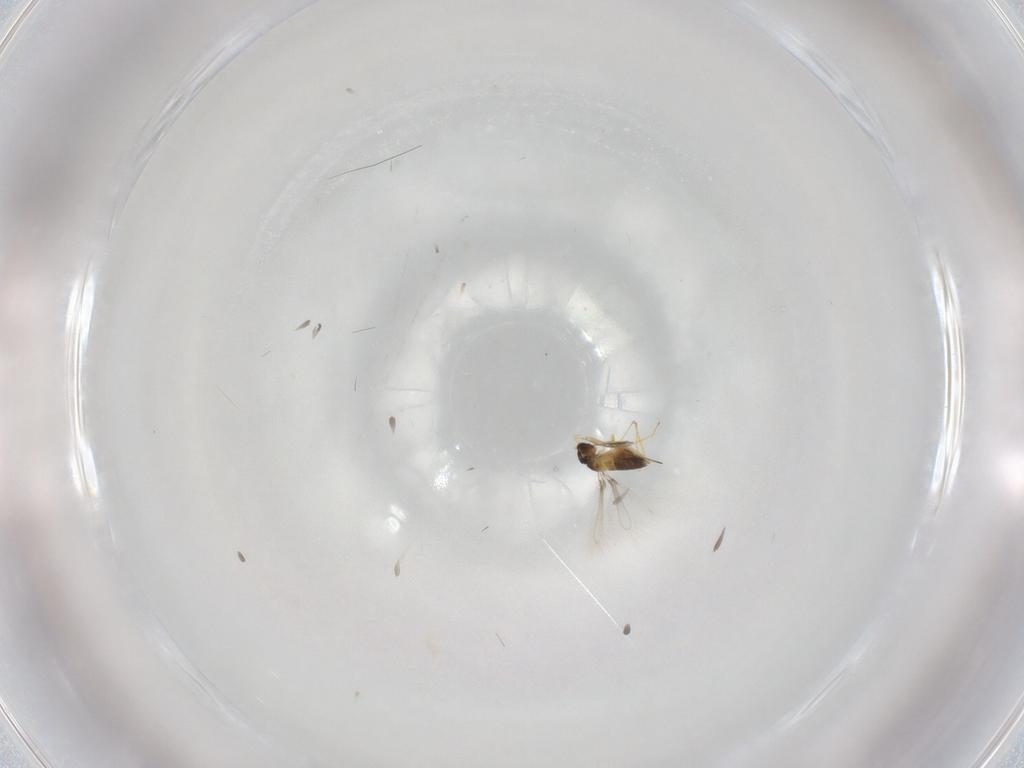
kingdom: Animalia
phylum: Arthropoda
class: Insecta
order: Hymenoptera
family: Mymaridae
